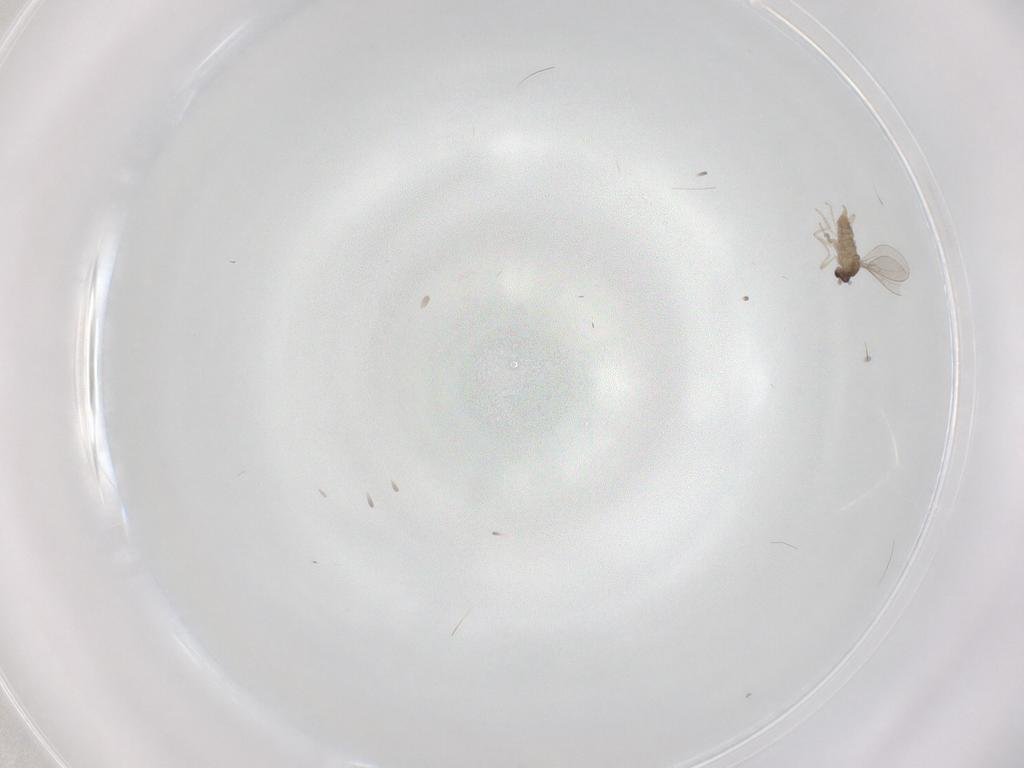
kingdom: Animalia
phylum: Arthropoda
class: Insecta
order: Diptera
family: Cecidomyiidae
